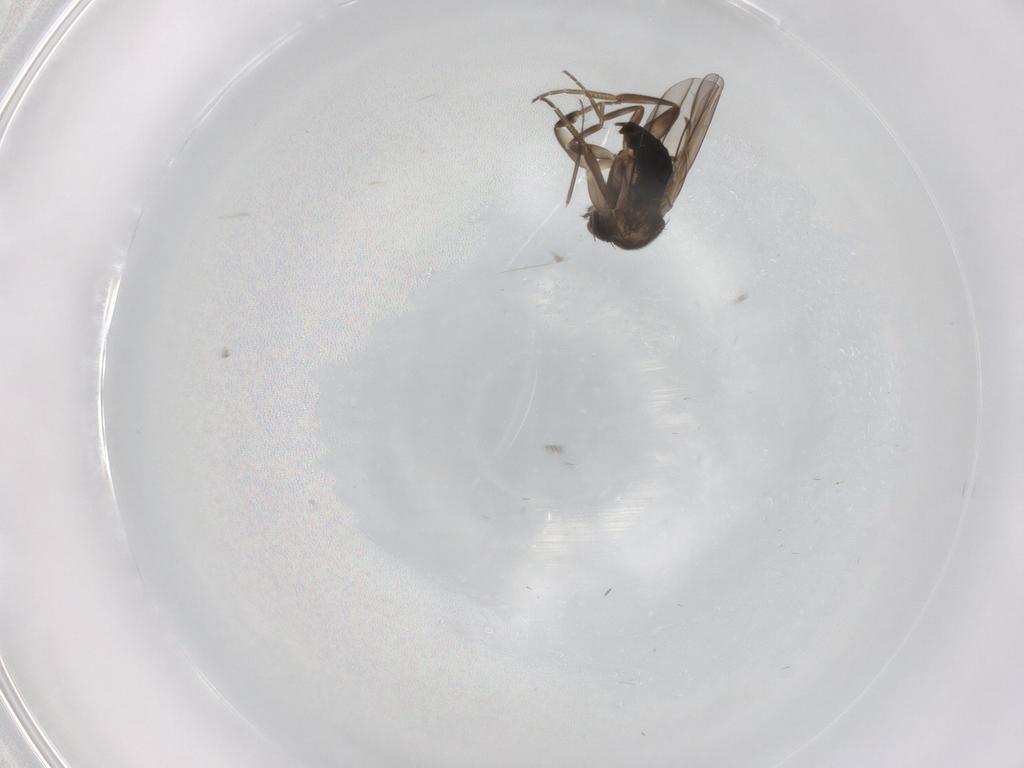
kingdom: Animalia
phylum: Arthropoda
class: Insecta
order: Diptera
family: Phoridae
